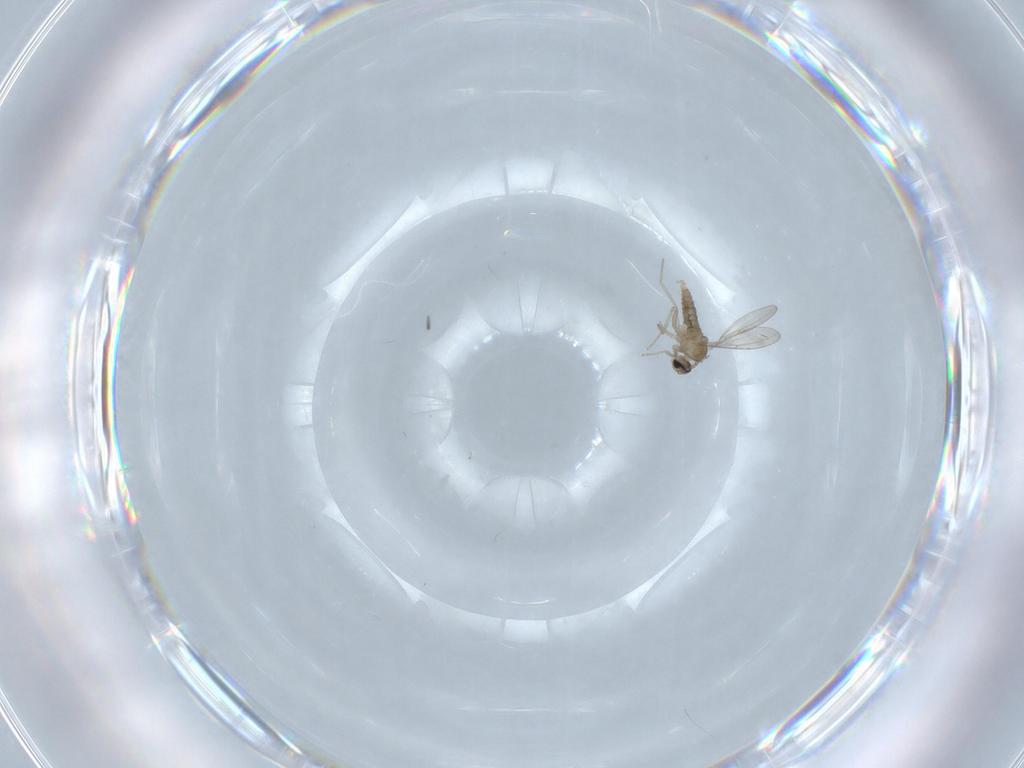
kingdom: Animalia
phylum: Arthropoda
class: Insecta
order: Diptera
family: Cecidomyiidae
